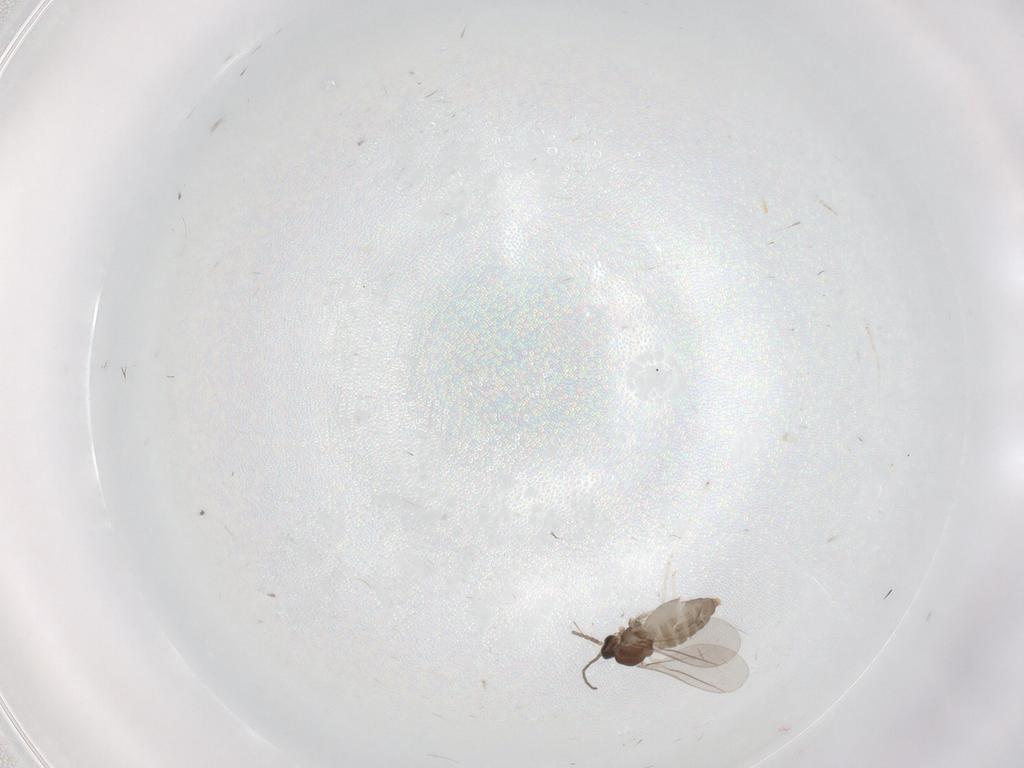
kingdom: Animalia
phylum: Arthropoda
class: Insecta
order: Diptera
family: Cecidomyiidae
